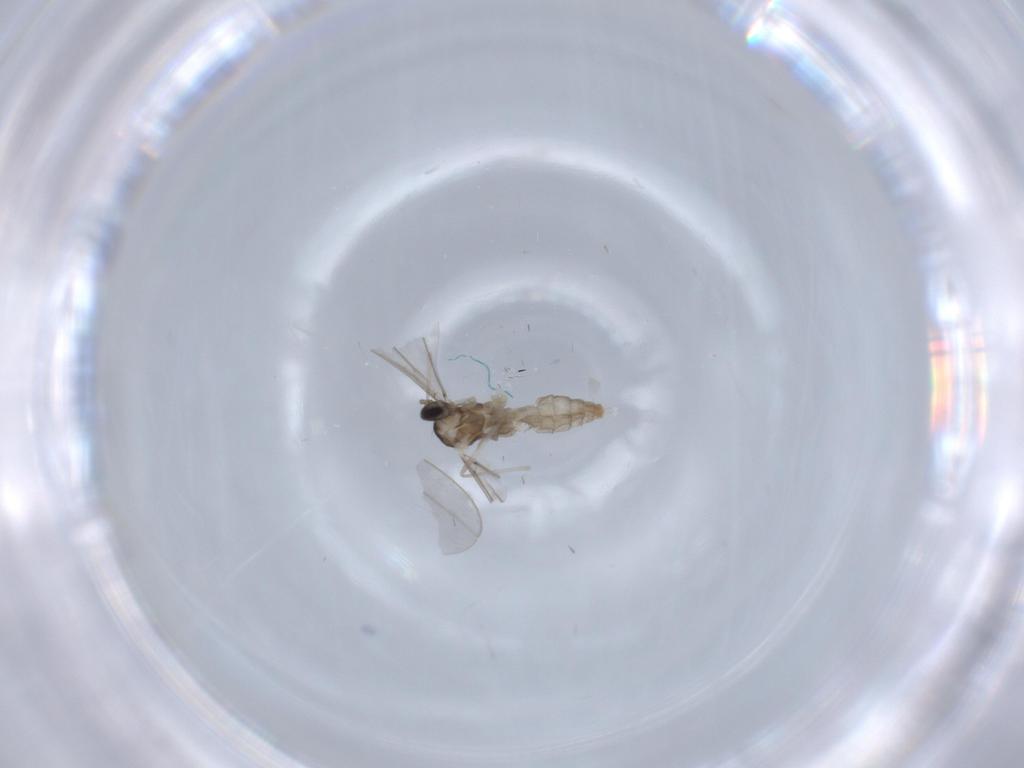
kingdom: Animalia
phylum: Arthropoda
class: Insecta
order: Diptera
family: Cecidomyiidae
